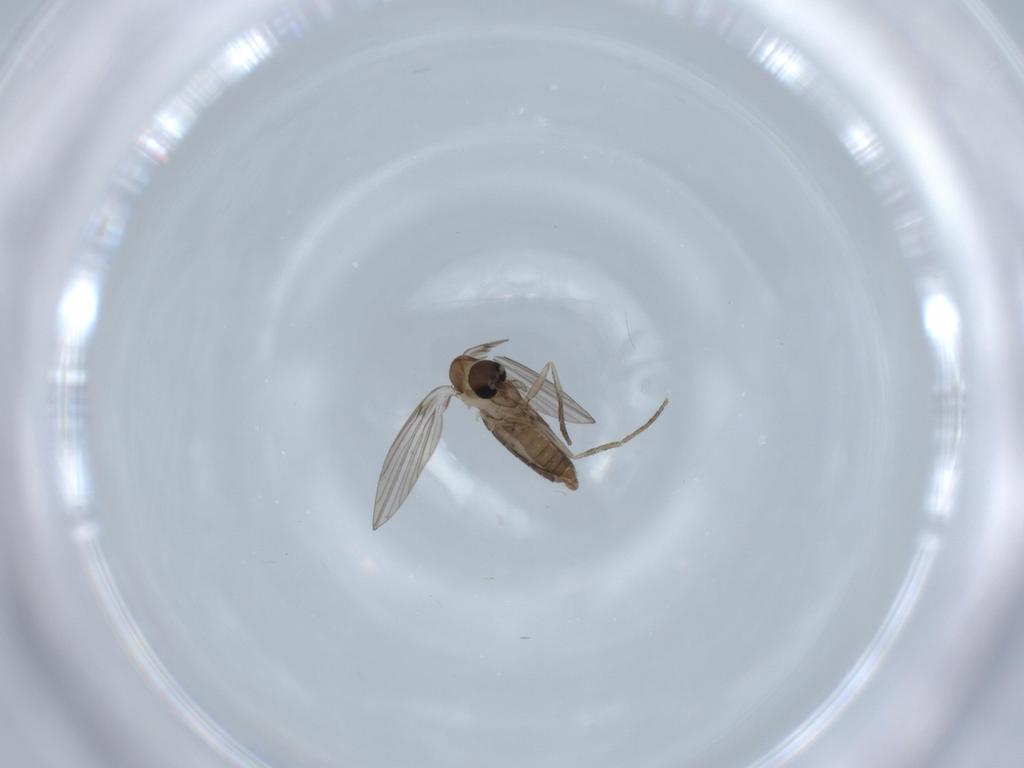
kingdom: Animalia
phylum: Arthropoda
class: Insecta
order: Diptera
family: Psychodidae
